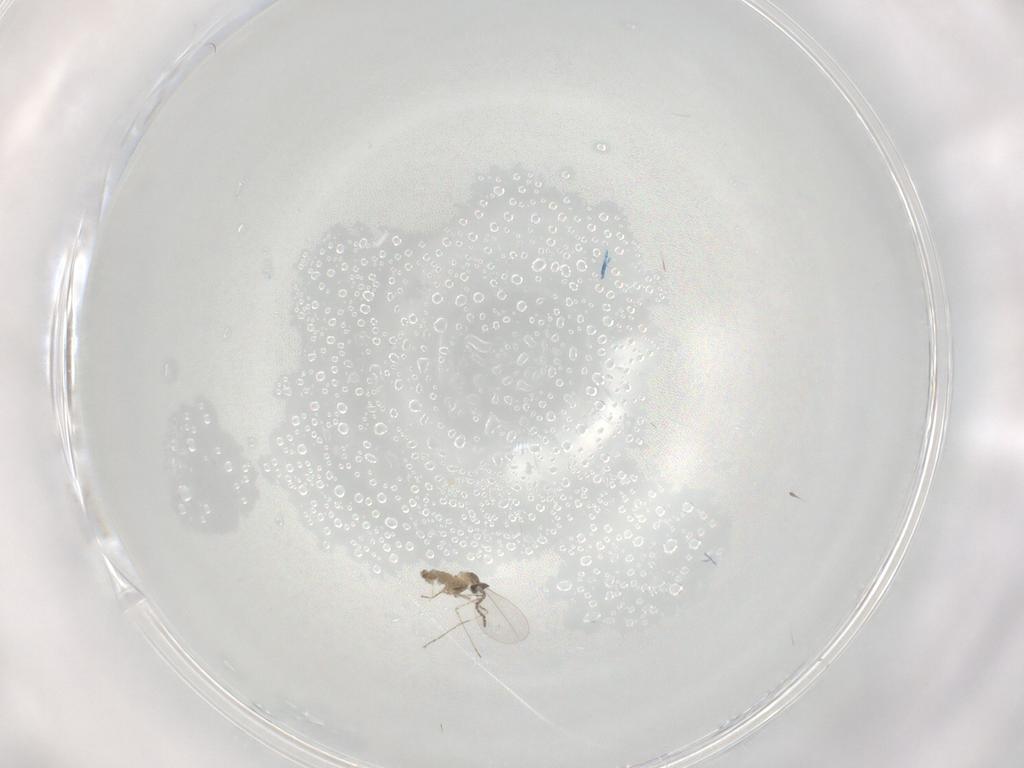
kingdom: Animalia
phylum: Arthropoda
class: Insecta
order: Diptera
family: Cecidomyiidae
